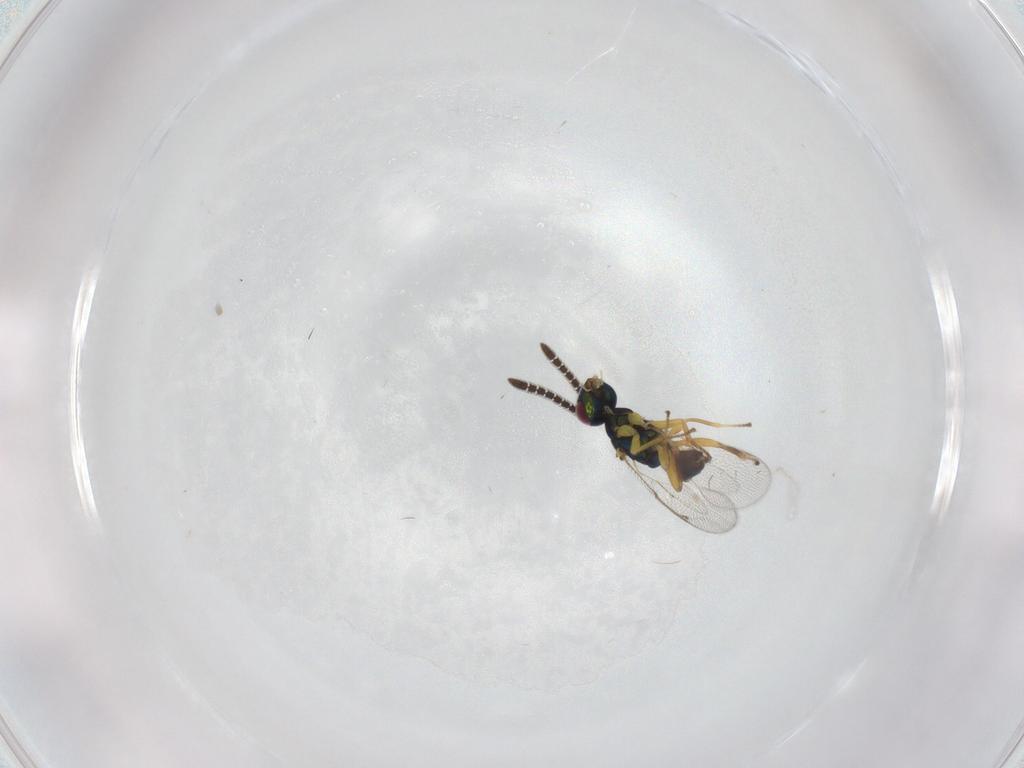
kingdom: Animalia
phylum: Arthropoda
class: Insecta
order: Hymenoptera
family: Torymidae
